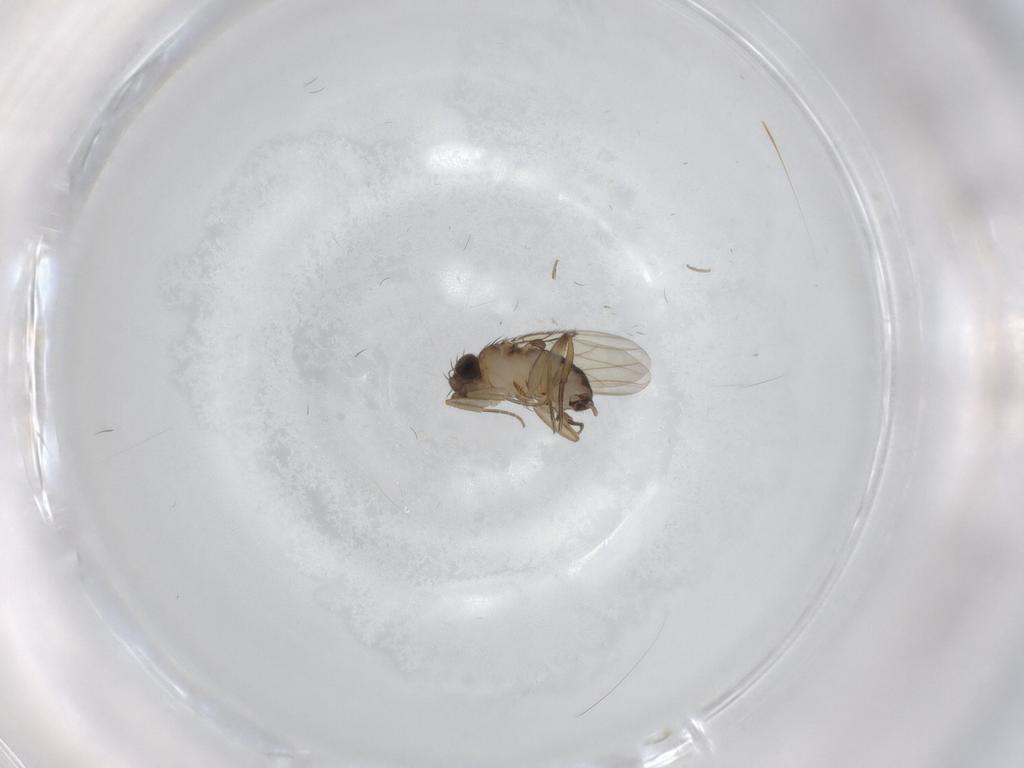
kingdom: Animalia
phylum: Arthropoda
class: Insecta
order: Diptera
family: Phoridae
